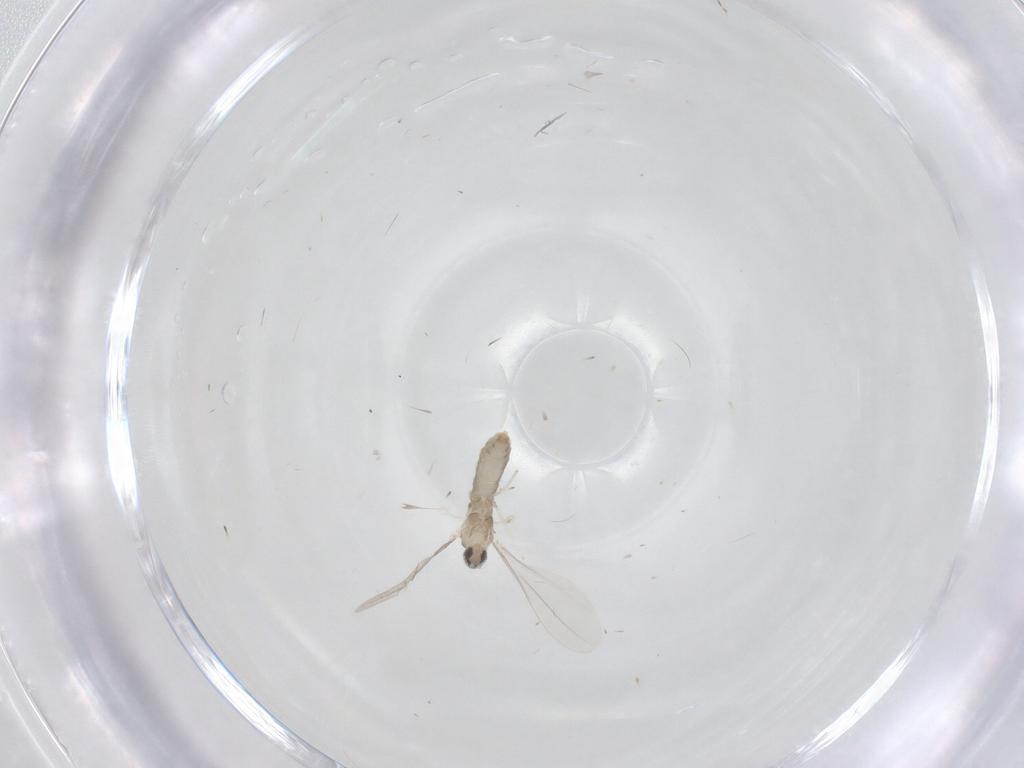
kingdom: Animalia
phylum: Arthropoda
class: Insecta
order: Diptera
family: Cecidomyiidae
